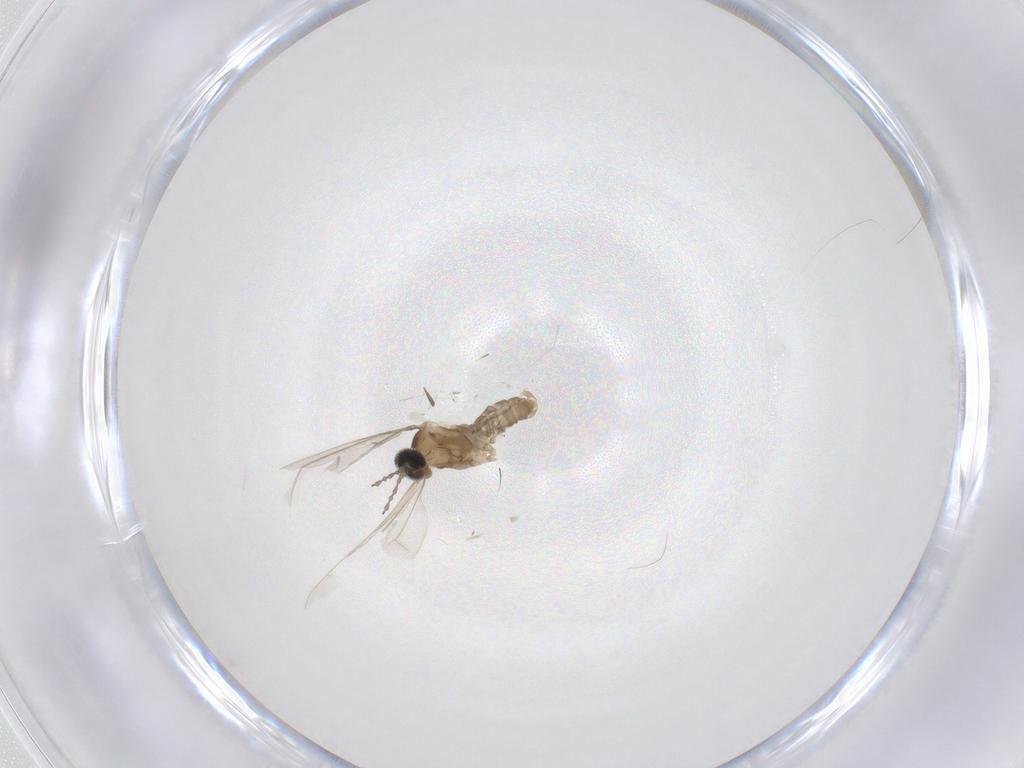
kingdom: Animalia
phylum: Arthropoda
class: Insecta
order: Diptera
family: Cecidomyiidae
